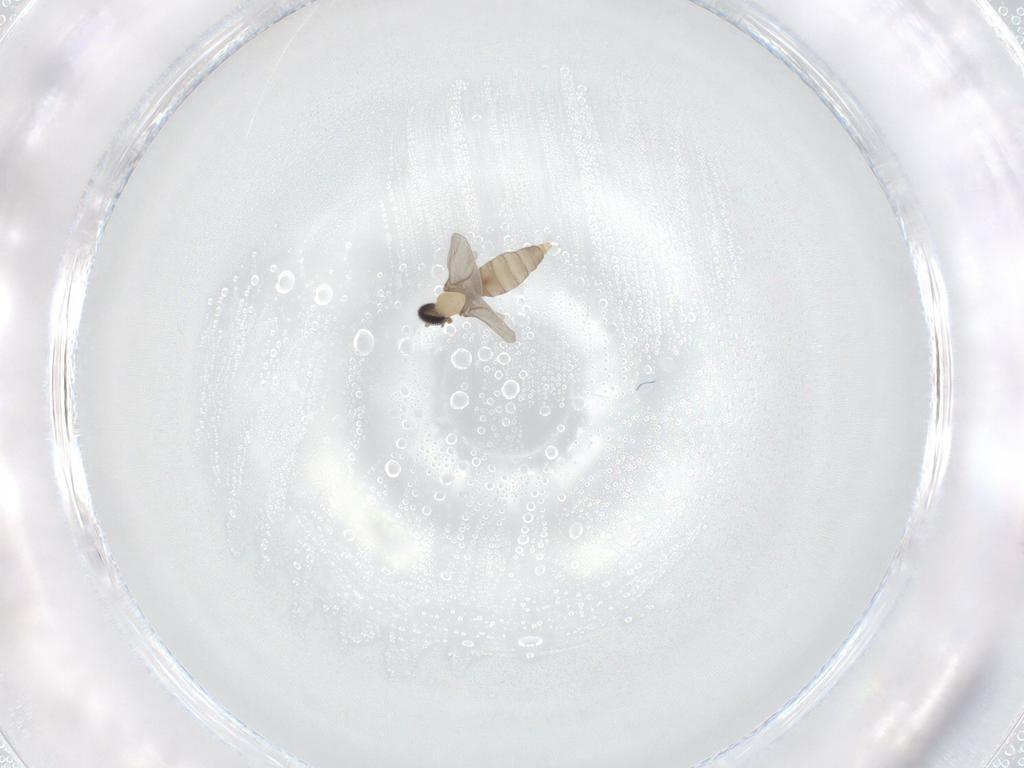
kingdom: Animalia
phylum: Arthropoda
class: Insecta
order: Diptera
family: Cecidomyiidae
